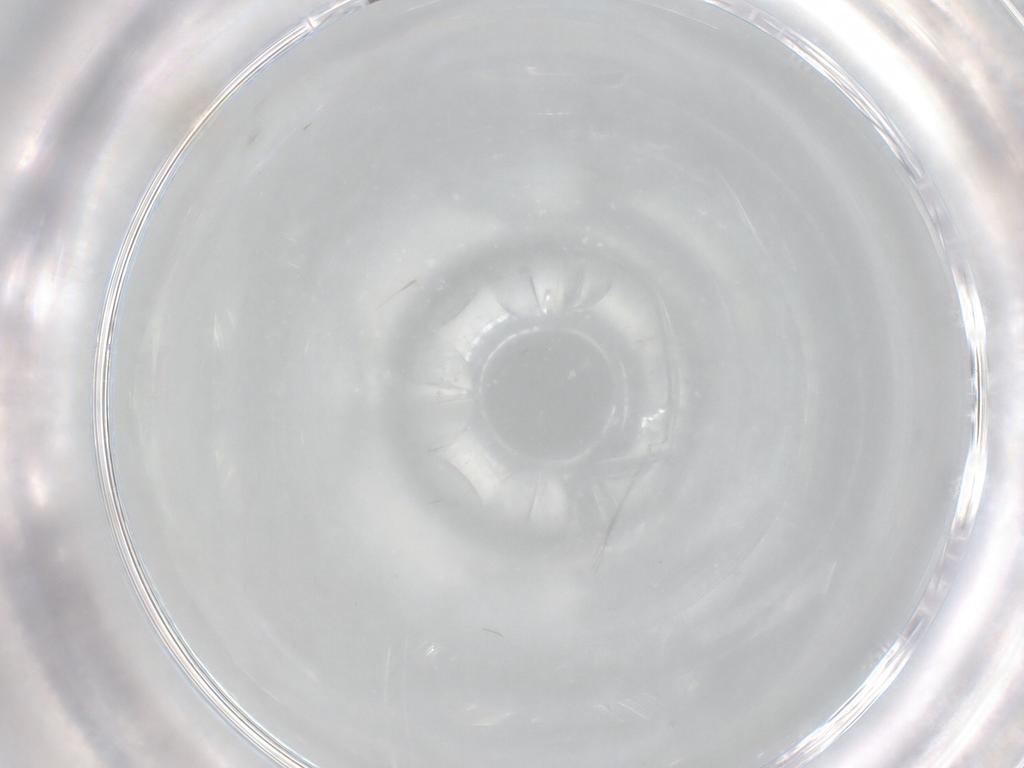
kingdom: Animalia
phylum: Arthropoda
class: Insecta
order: Diptera
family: Cecidomyiidae
